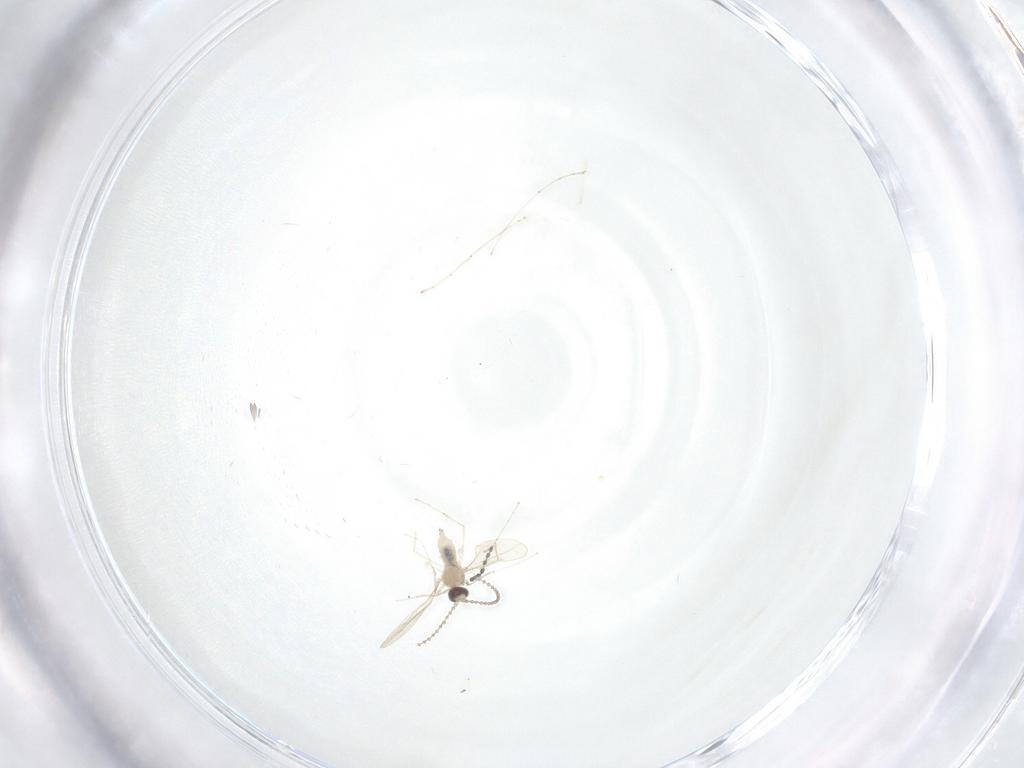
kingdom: Animalia
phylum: Arthropoda
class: Insecta
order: Diptera
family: Cecidomyiidae
